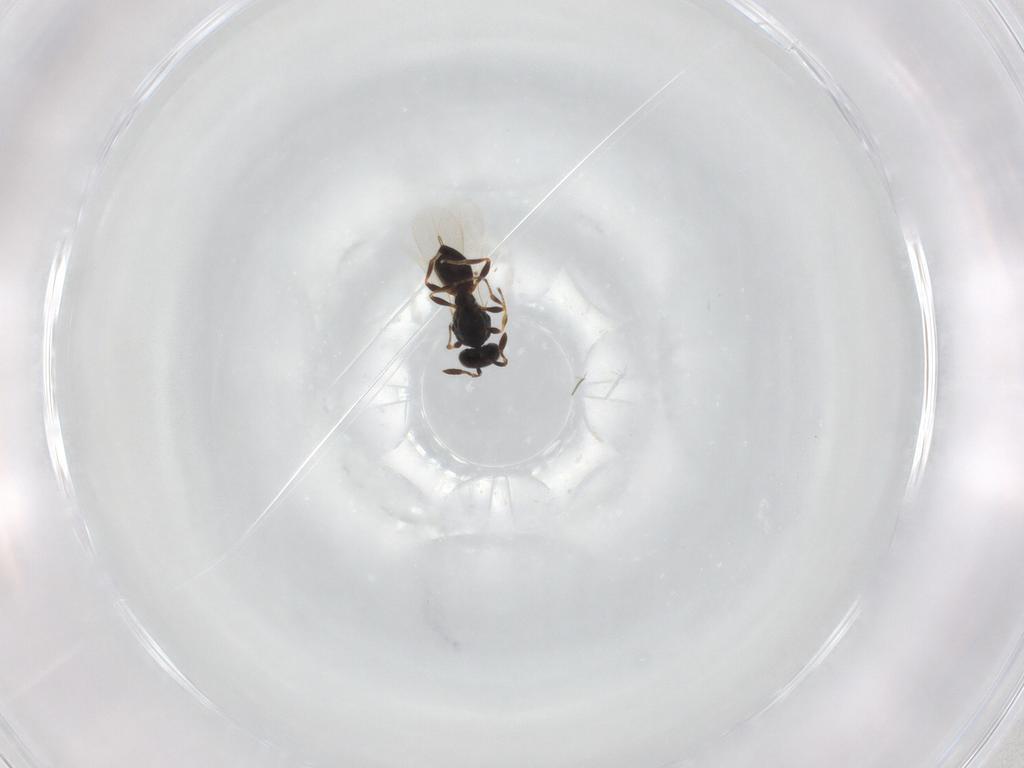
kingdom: Animalia
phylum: Arthropoda
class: Insecta
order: Hymenoptera
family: Platygastridae
